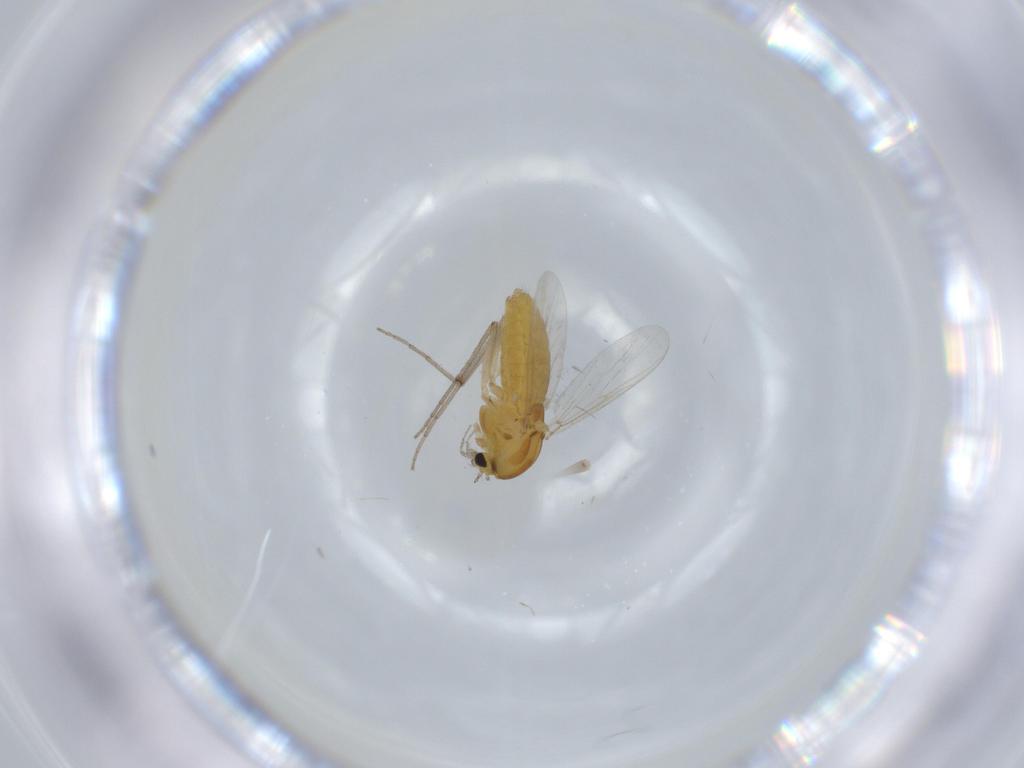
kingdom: Animalia
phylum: Arthropoda
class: Insecta
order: Diptera
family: Chironomidae
